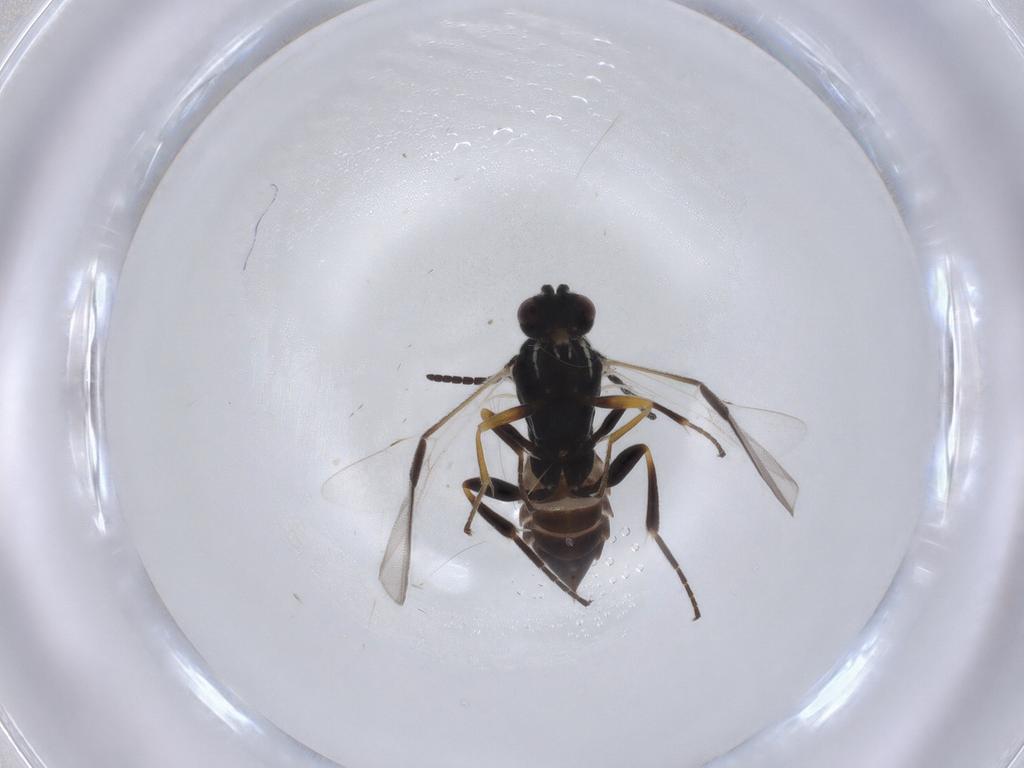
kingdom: Animalia
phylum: Arthropoda
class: Insecta
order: Hymenoptera
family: Braconidae
